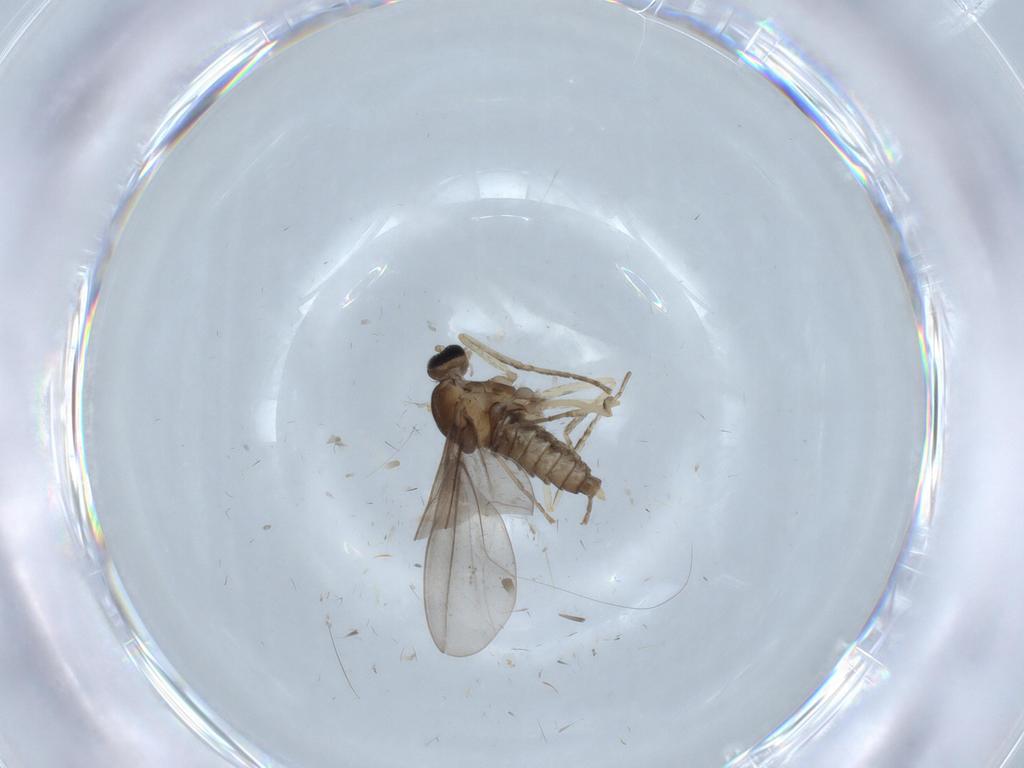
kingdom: Animalia
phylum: Arthropoda
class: Insecta
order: Diptera
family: Cecidomyiidae
